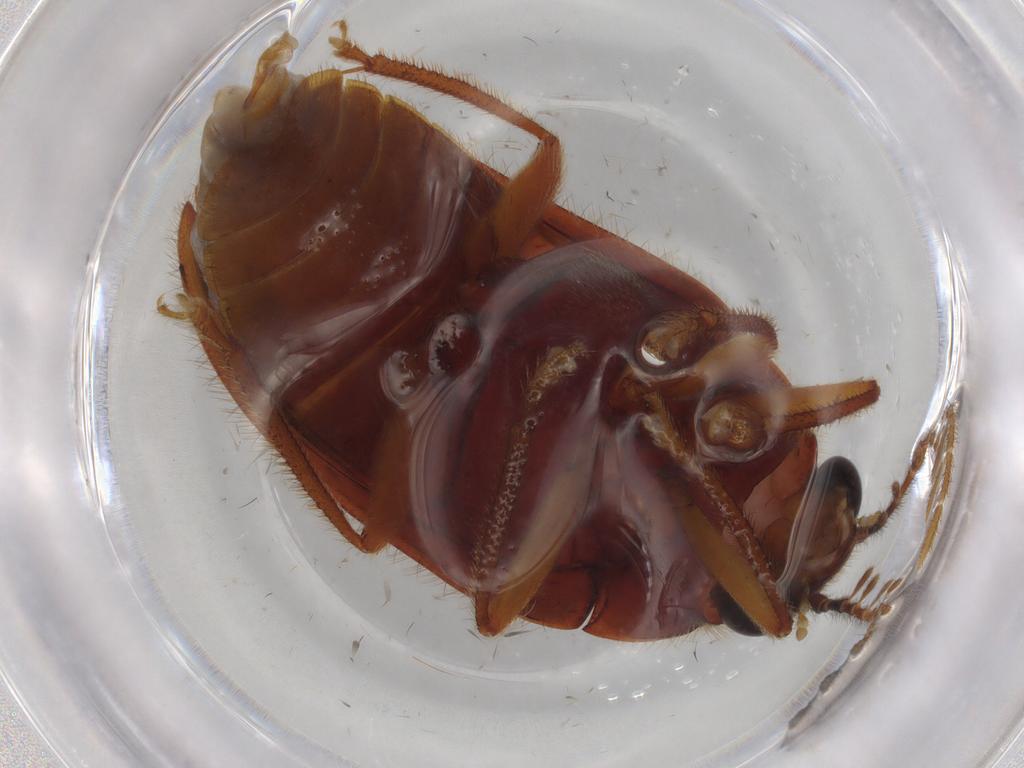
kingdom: Animalia
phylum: Arthropoda
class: Insecta
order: Coleoptera
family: Ptilodactylidae
